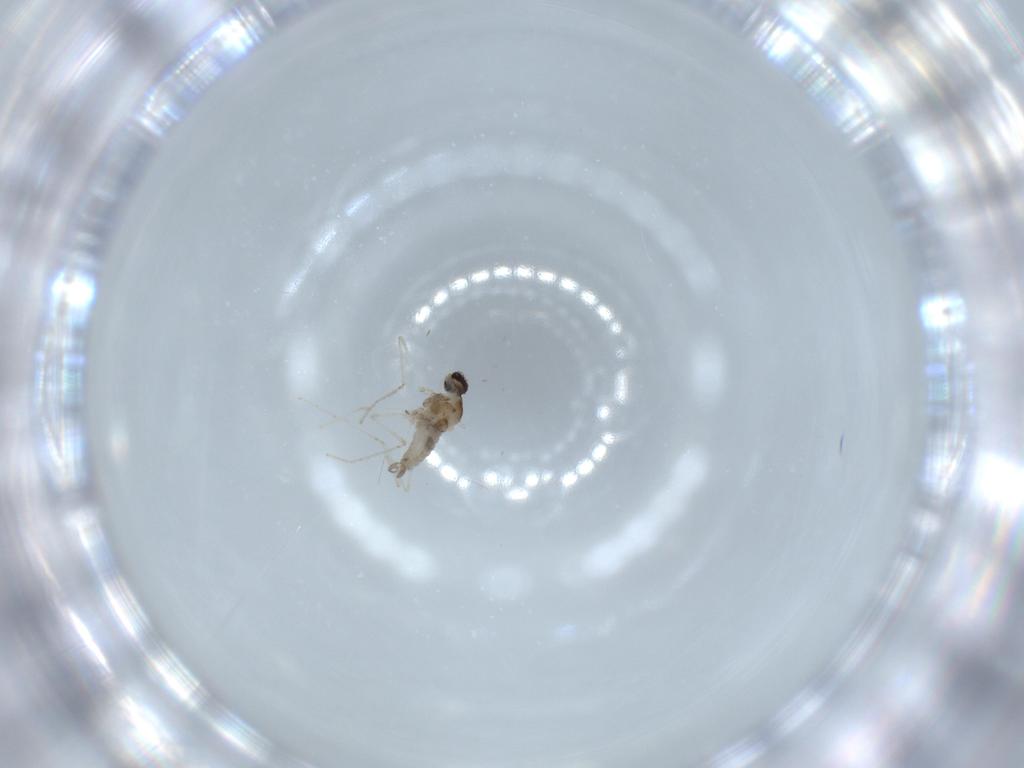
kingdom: Animalia
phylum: Arthropoda
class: Insecta
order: Diptera
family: Cecidomyiidae
